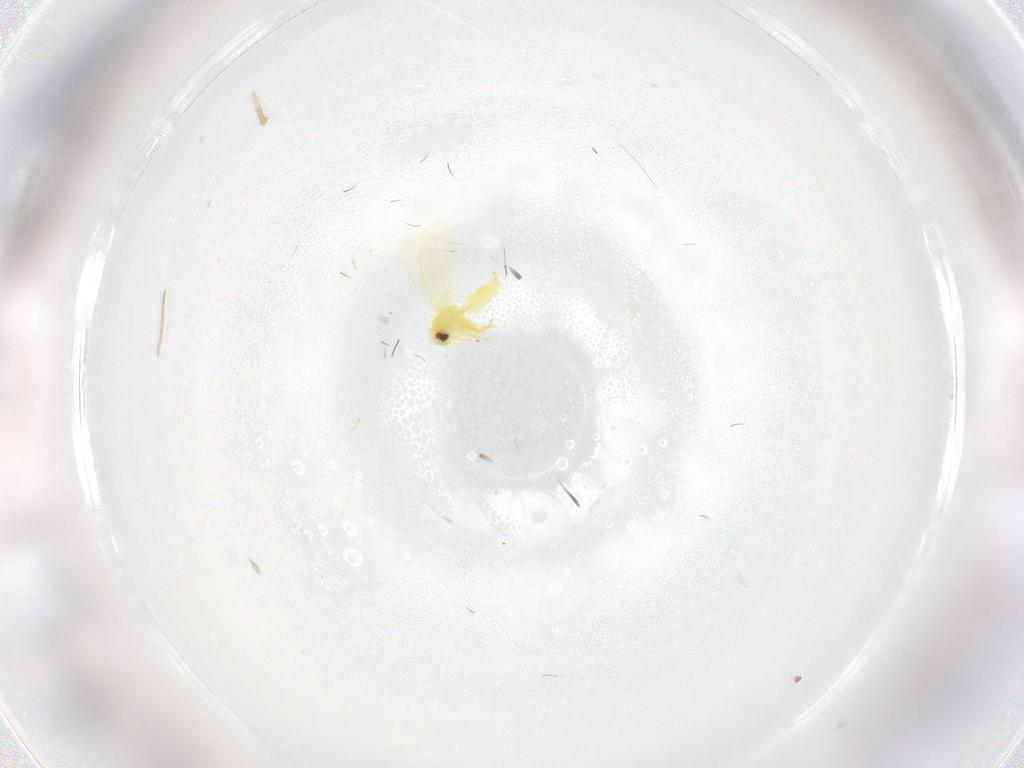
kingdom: Animalia
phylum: Arthropoda
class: Insecta
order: Hemiptera
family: Aleyrodidae
